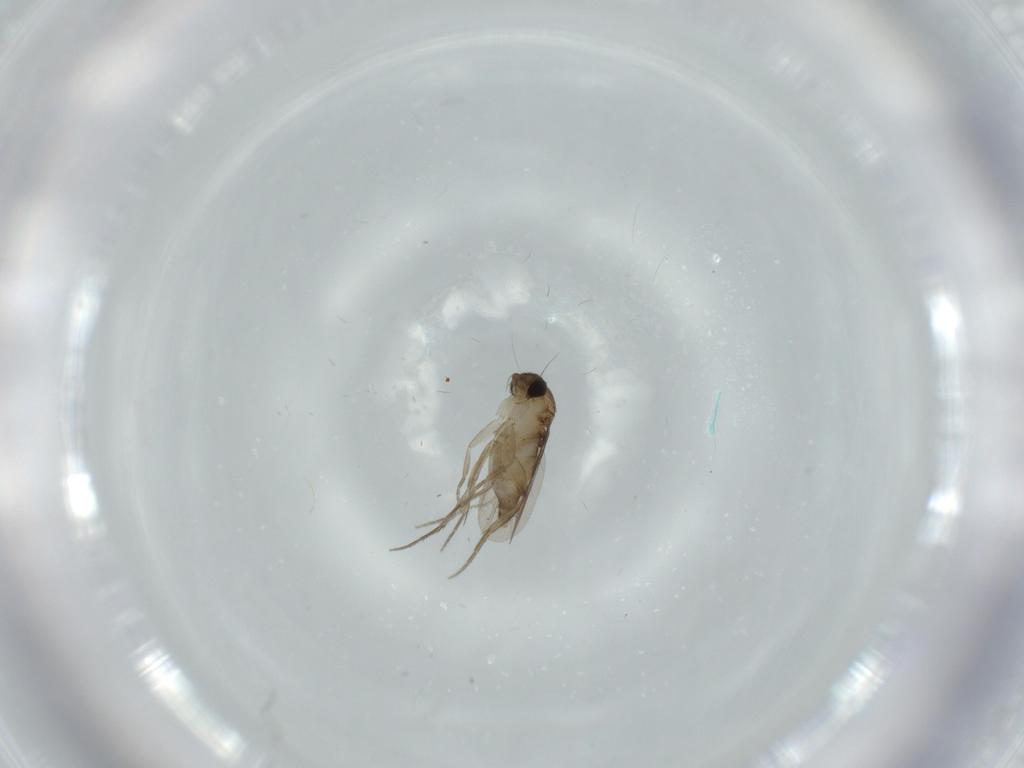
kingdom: Animalia
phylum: Arthropoda
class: Insecta
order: Diptera
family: Phoridae
